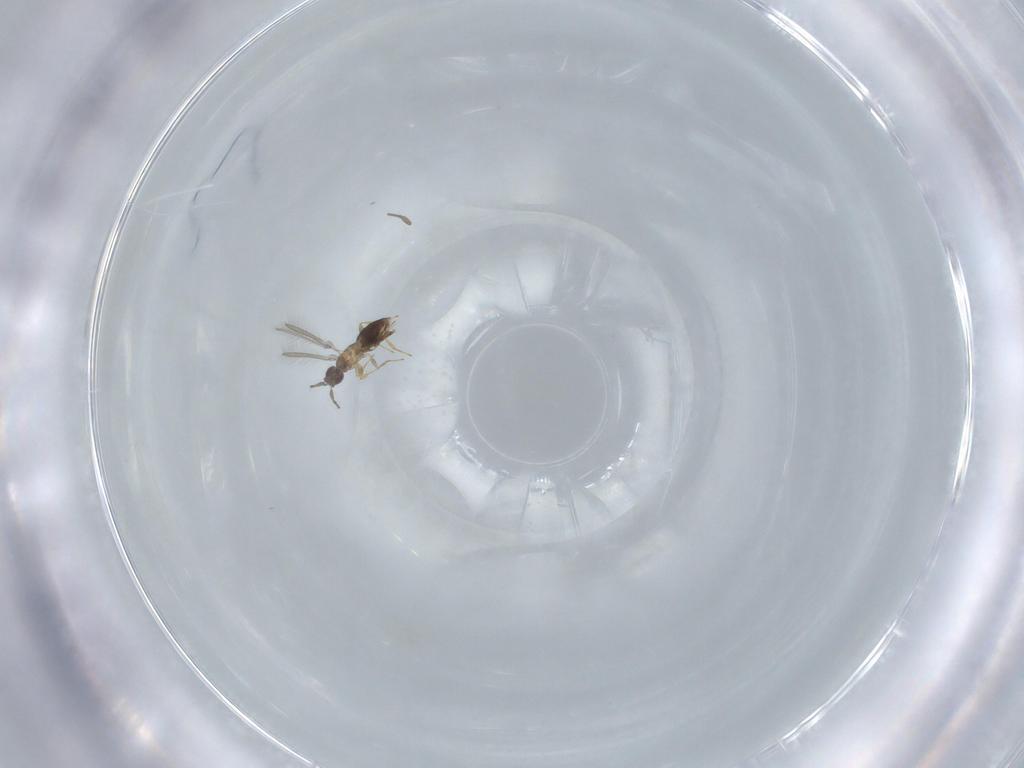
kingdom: Animalia
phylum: Arthropoda
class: Insecta
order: Hymenoptera
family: Mymaridae
